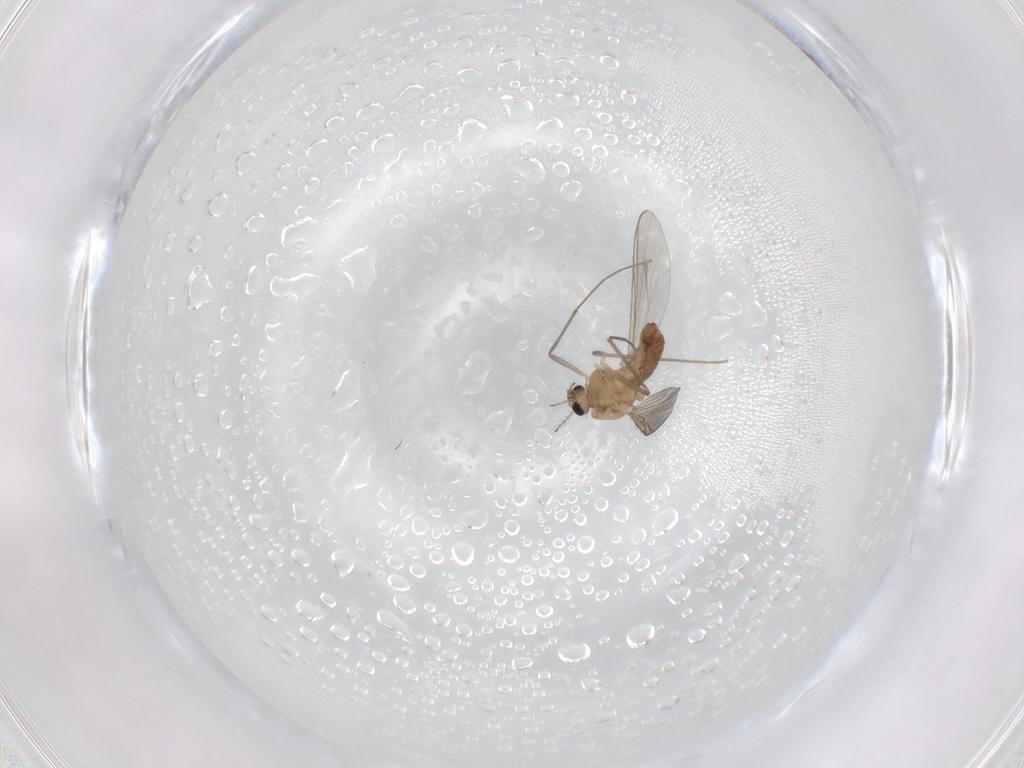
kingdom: Animalia
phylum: Arthropoda
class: Insecta
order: Diptera
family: Chironomidae
